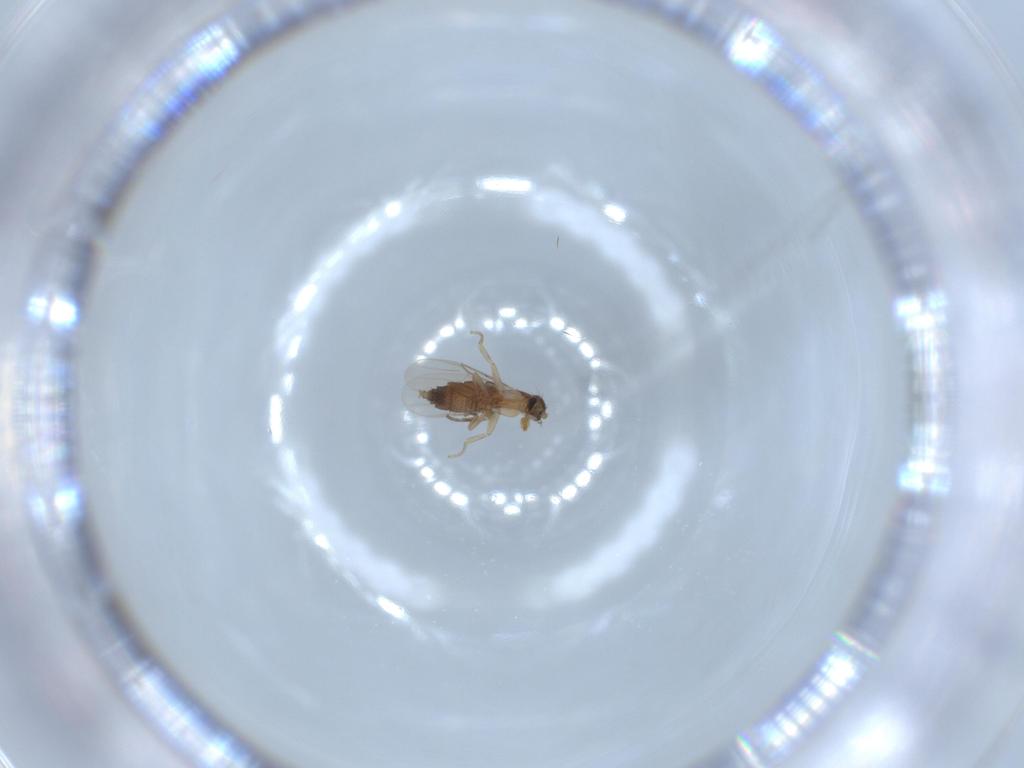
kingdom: Animalia
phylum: Arthropoda
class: Insecta
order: Diptera
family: Phoridae
